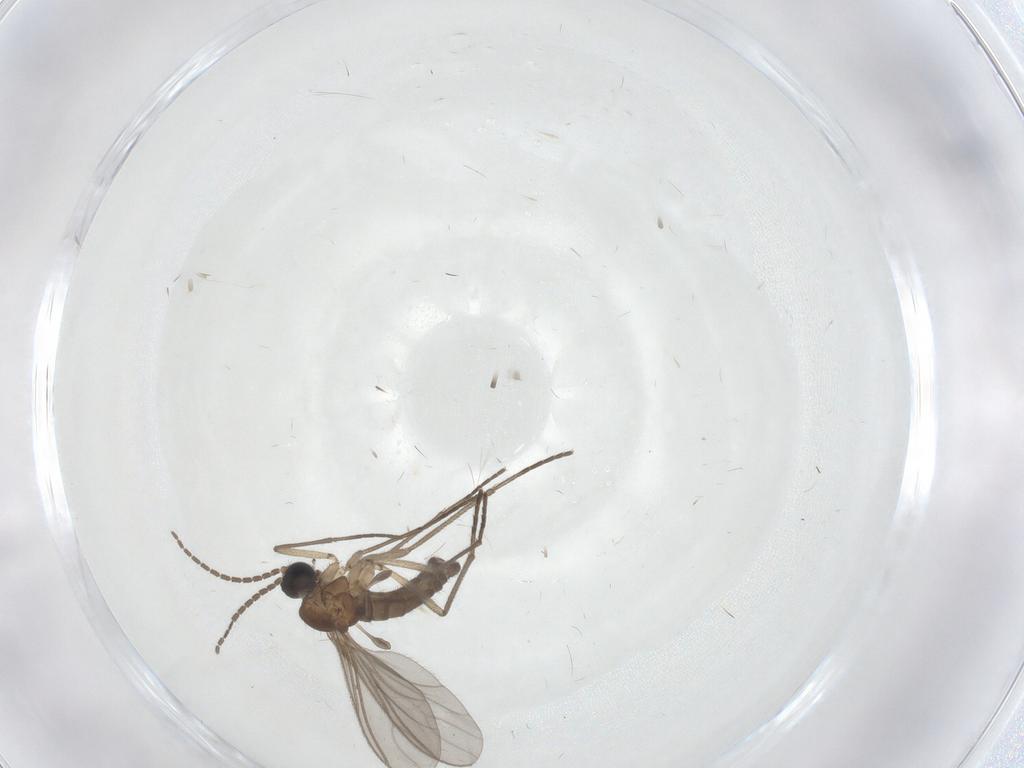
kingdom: Animalia
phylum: Arthropoda
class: Insecta
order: Diptera
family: Sciaridae
